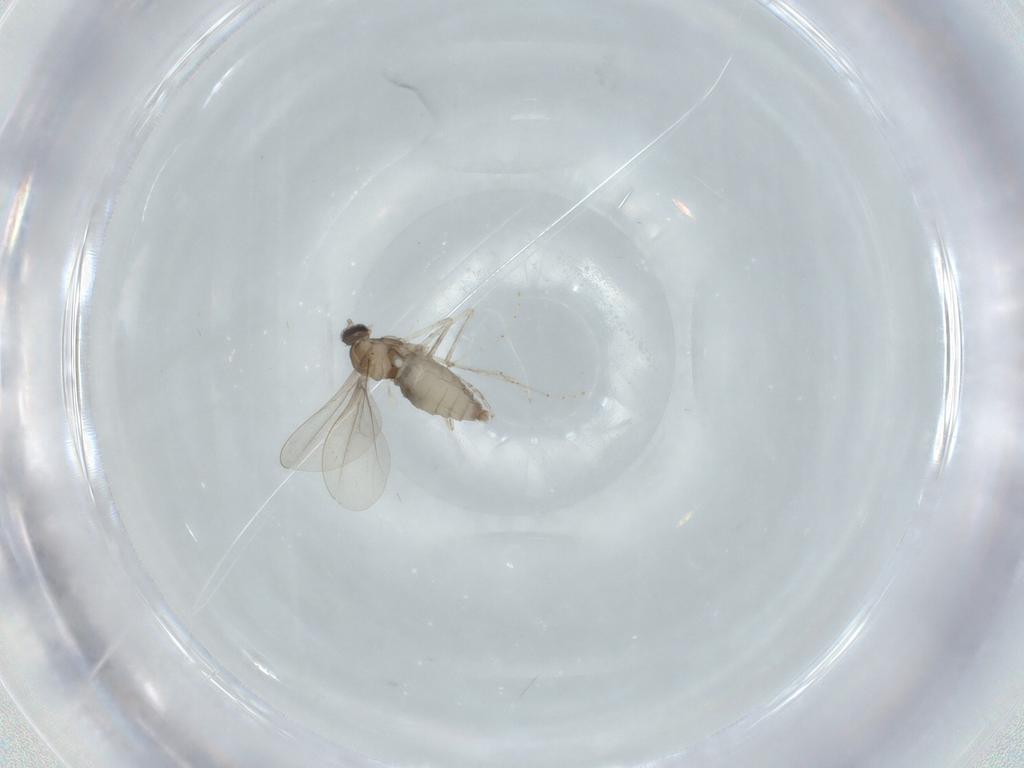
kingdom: Animalia
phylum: Arthropoda
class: Insecta
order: Diptera
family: Cecidomyiidae
